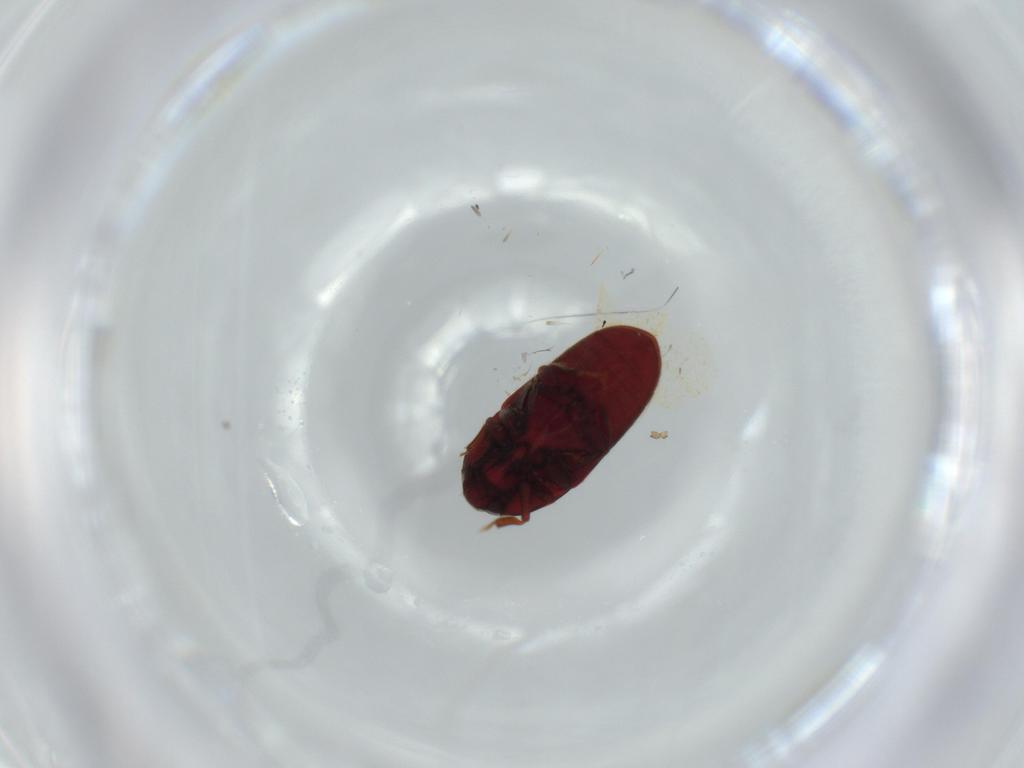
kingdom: Animalia
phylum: Arthropoda
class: Insecta
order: Coleoptera
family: Throscidae
